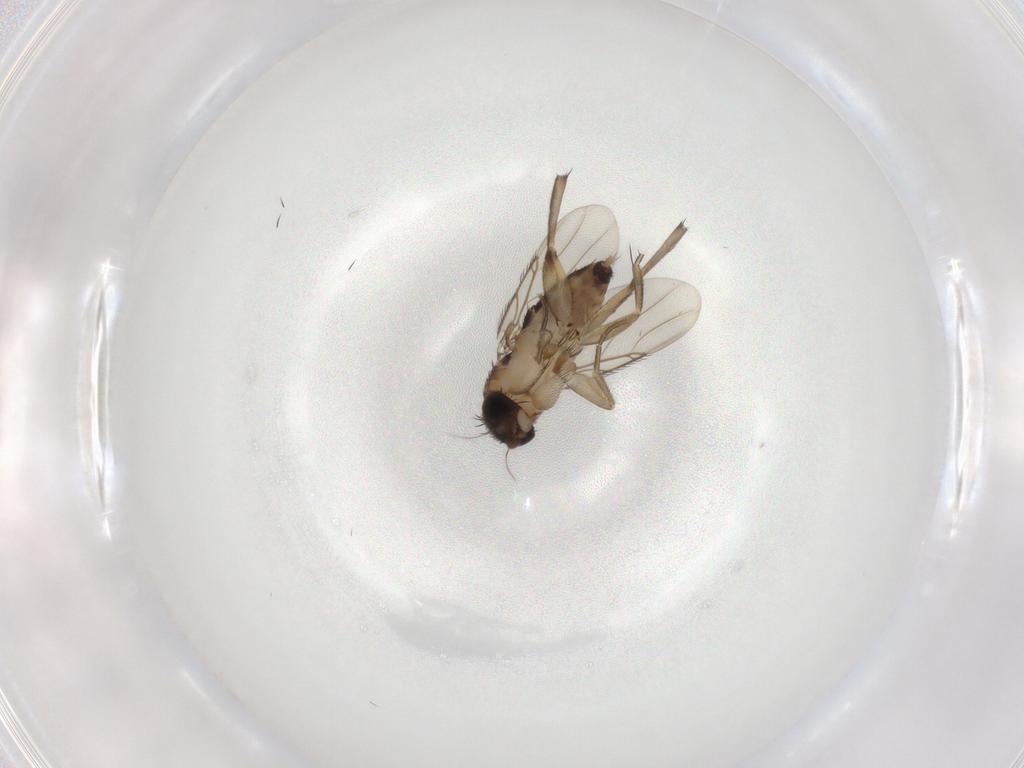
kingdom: Animalia
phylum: Arthropoda
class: Insecta
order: Diptera
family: Phoridae
